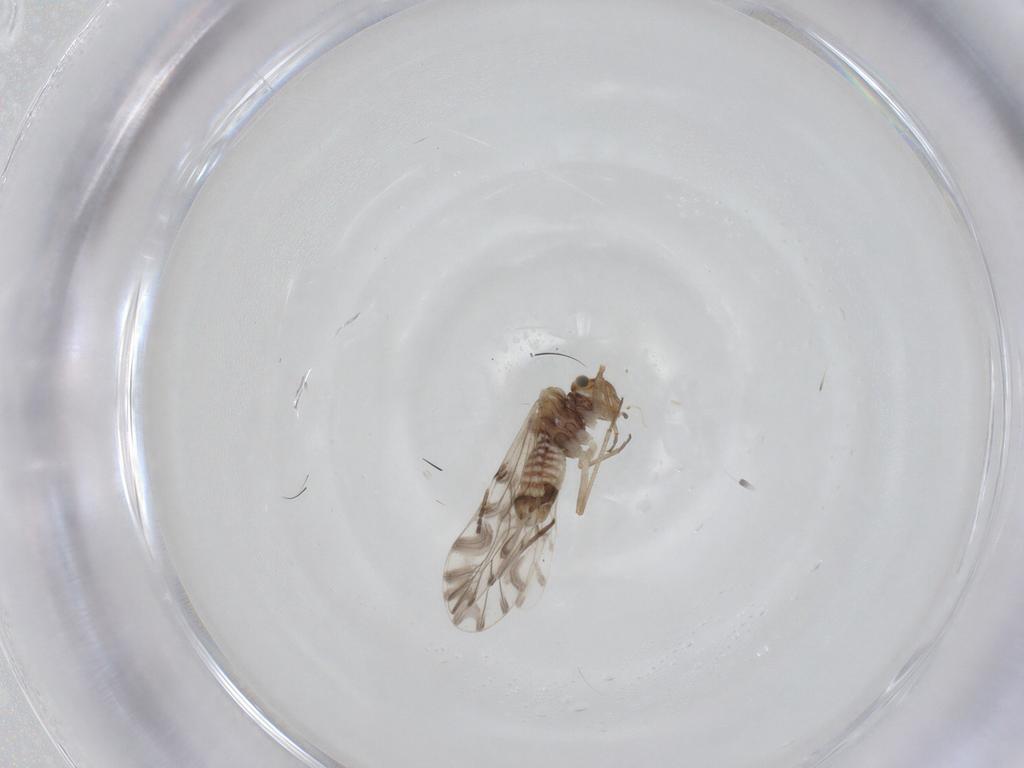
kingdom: Animalia
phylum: Arthropoda
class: Insecta
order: Psocodea
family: Lachesillidae
